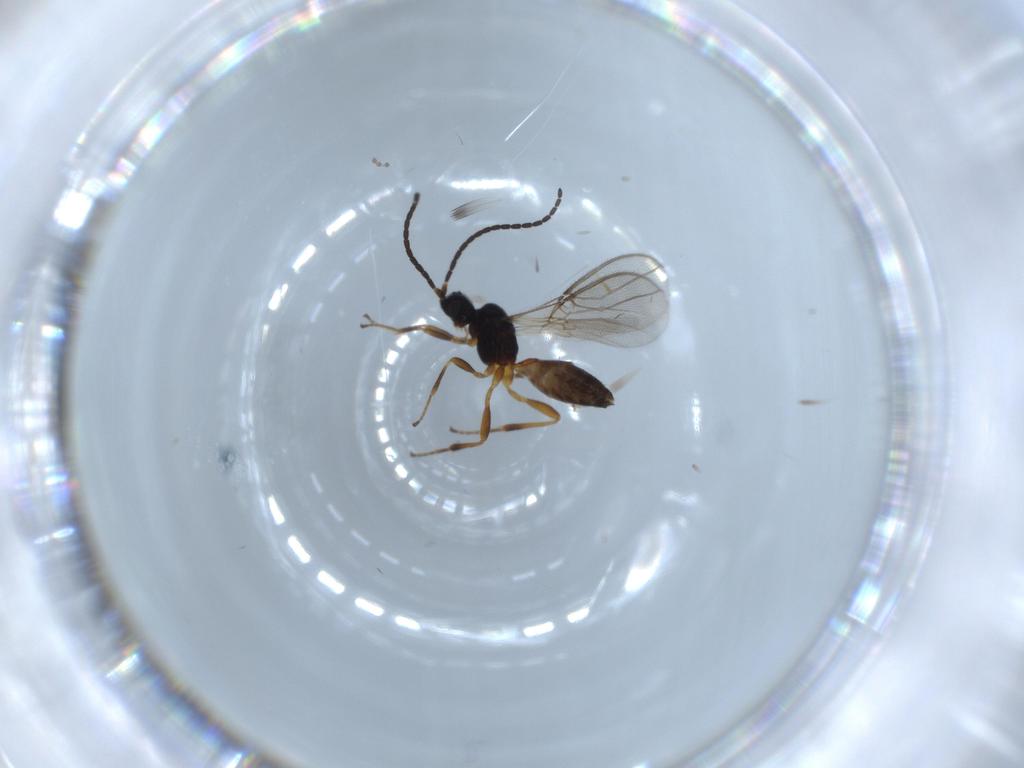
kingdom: Animalia
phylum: Arthropoda
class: Insecta
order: Hymenoptera
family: Braconidae
